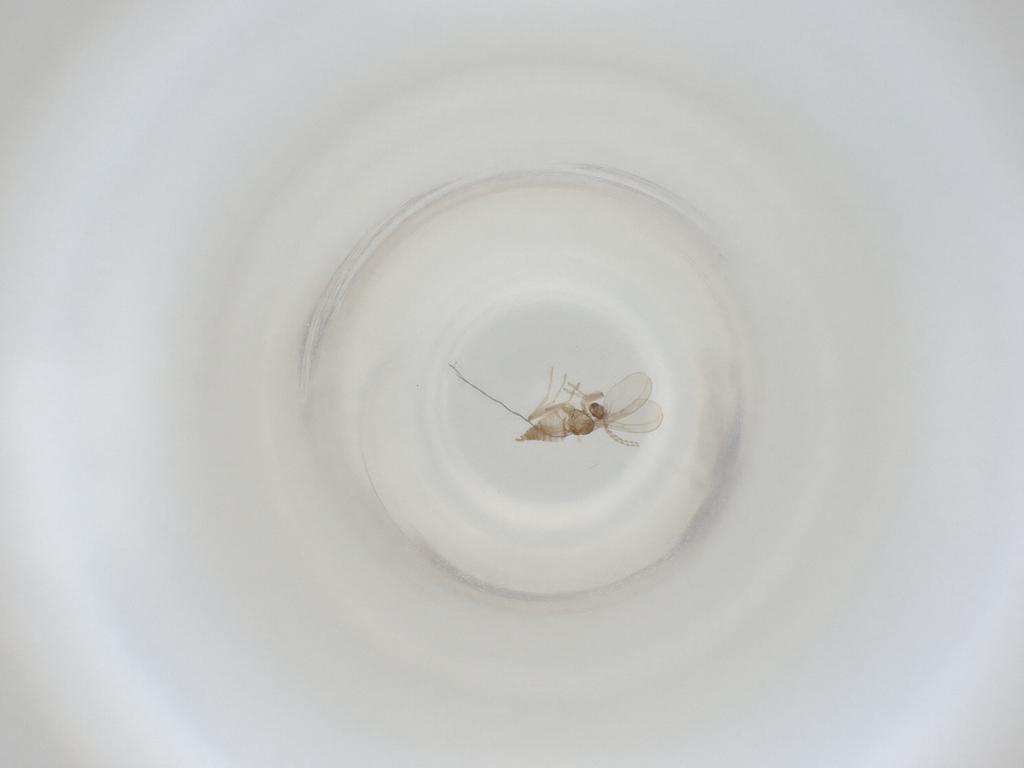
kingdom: Animalia
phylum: Arthropoda
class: Insecta
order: Diptera
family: Cecidomyiidae
